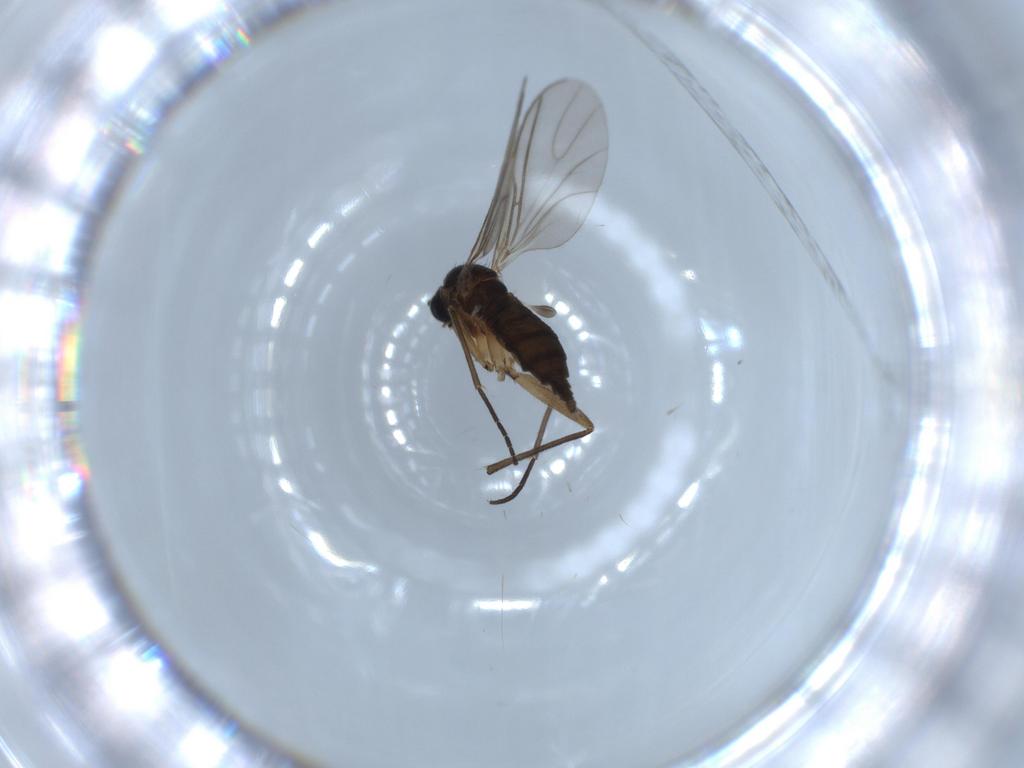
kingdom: Animalia
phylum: Arthropoda
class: Insecta
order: Diptera
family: Sciaridae
